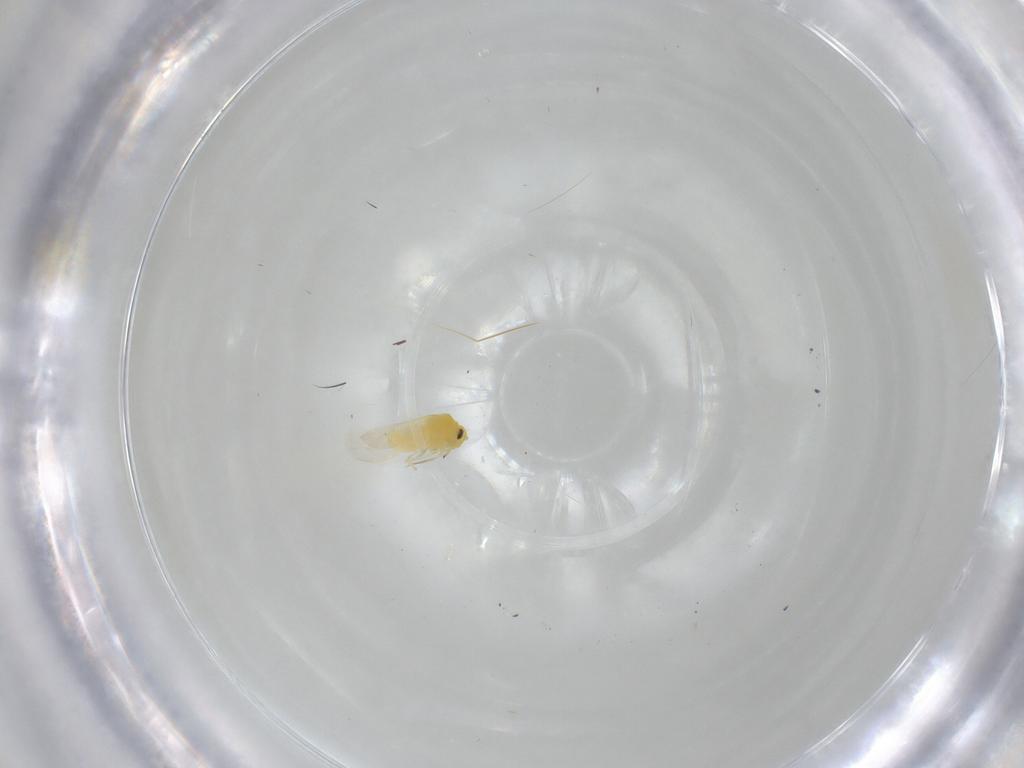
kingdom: Animalia
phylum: Arthropoda
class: Insecta
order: Hemiptera
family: Aleyrodidae
